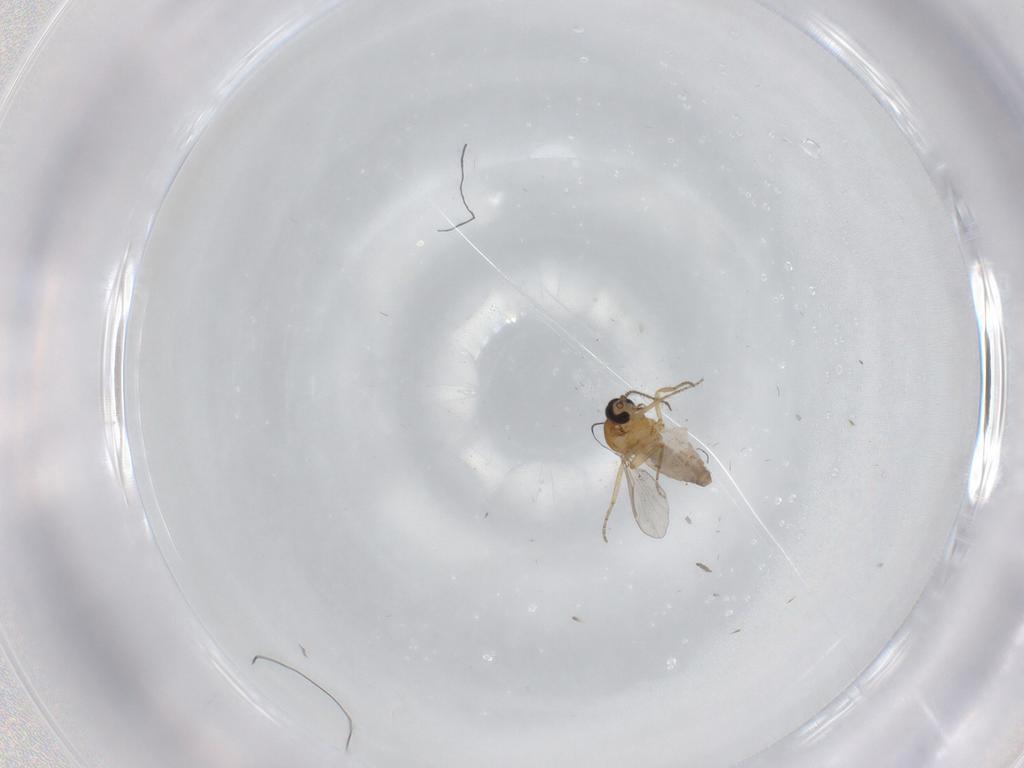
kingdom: Animalia
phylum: Arthropoda
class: Insecta
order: Diptera
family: Ceratopogonidae
